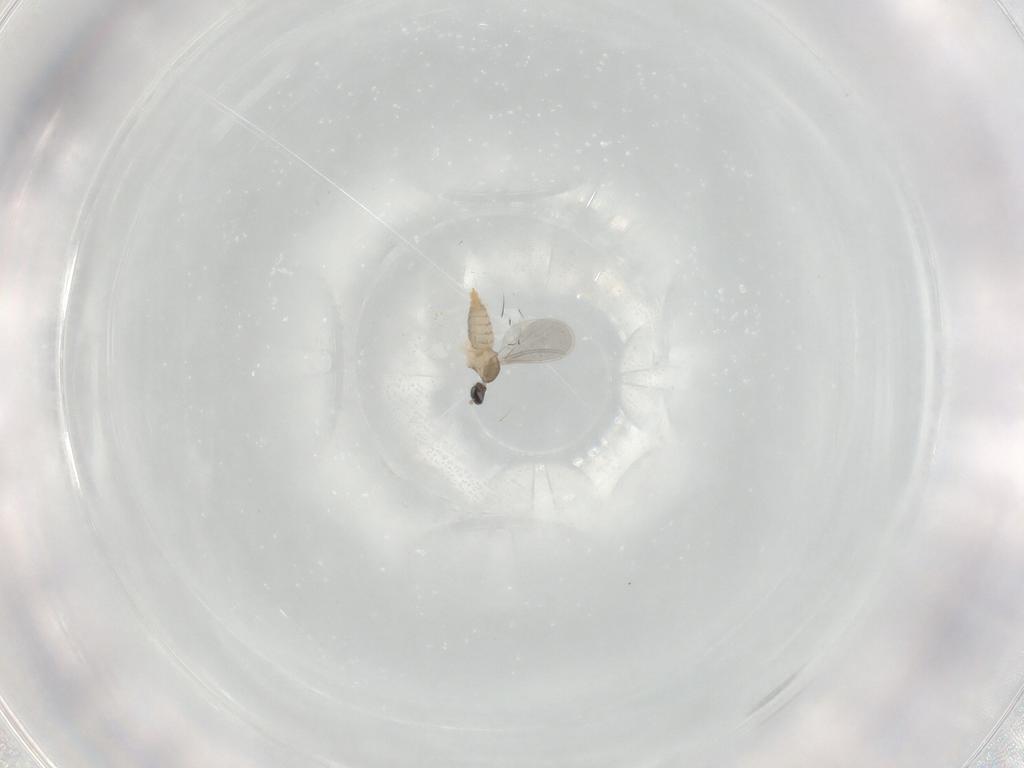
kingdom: Animalia
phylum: Arthropoda
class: Insecta
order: Diptera
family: Cecidomyiidae
